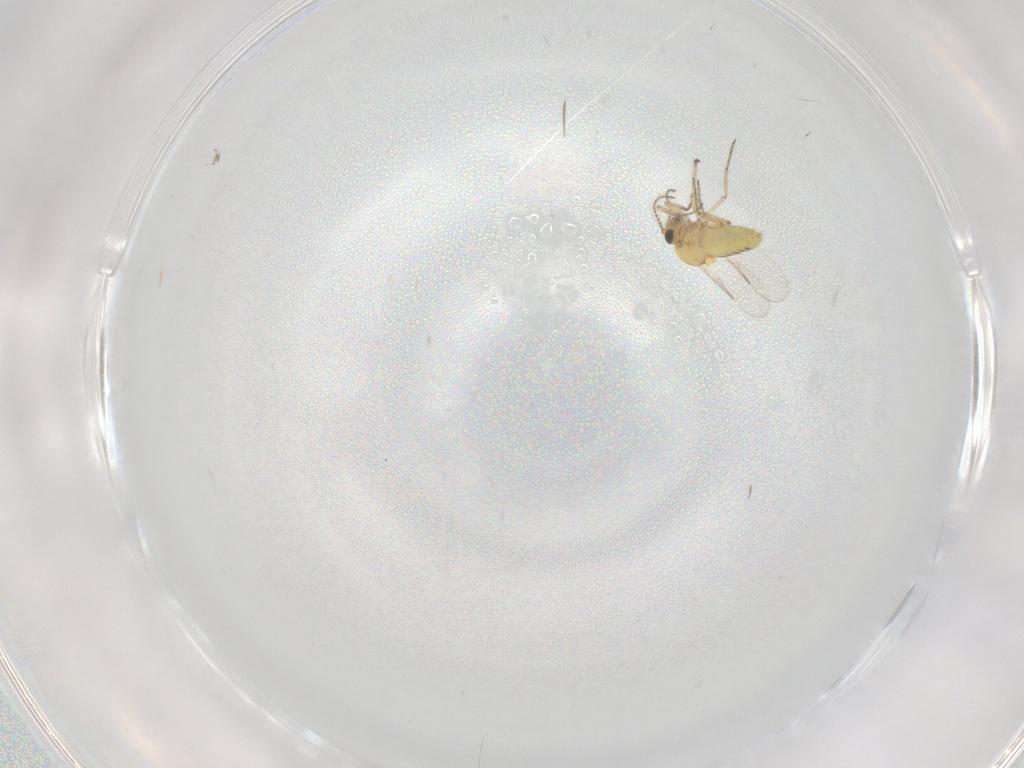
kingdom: Animalia
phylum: Arthropoda
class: Insecta
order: Diptera
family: Ceratopogonidae
